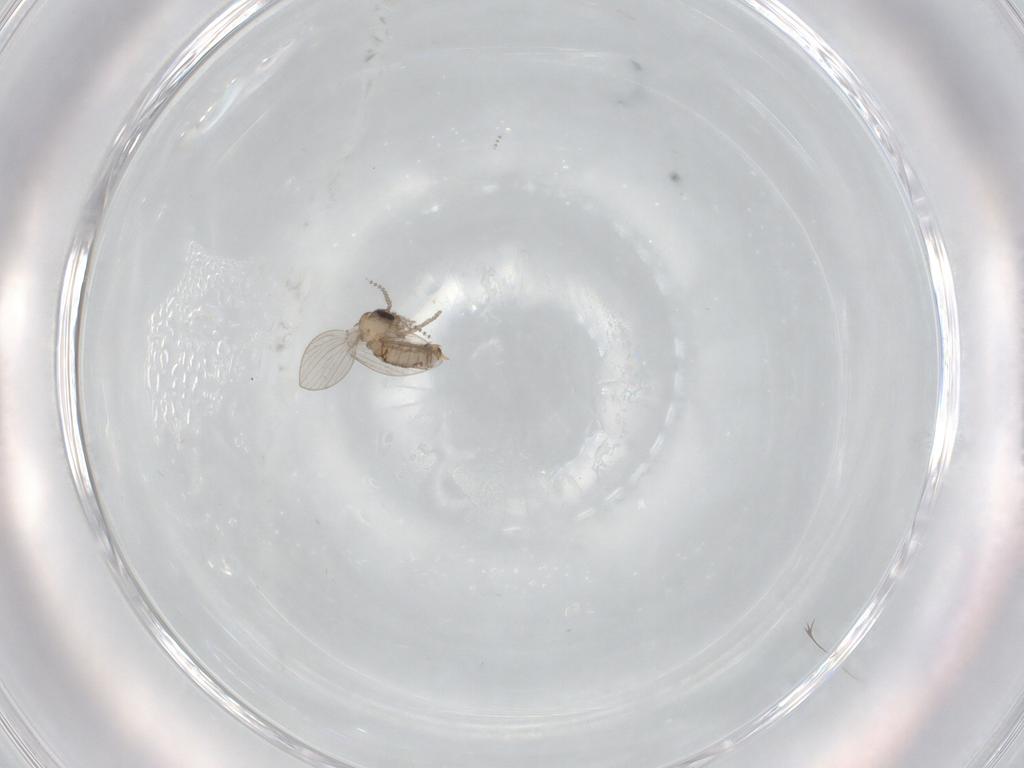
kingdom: Animalia
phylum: Arthropoda
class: Insecta
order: Diptera
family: Psychodidae
